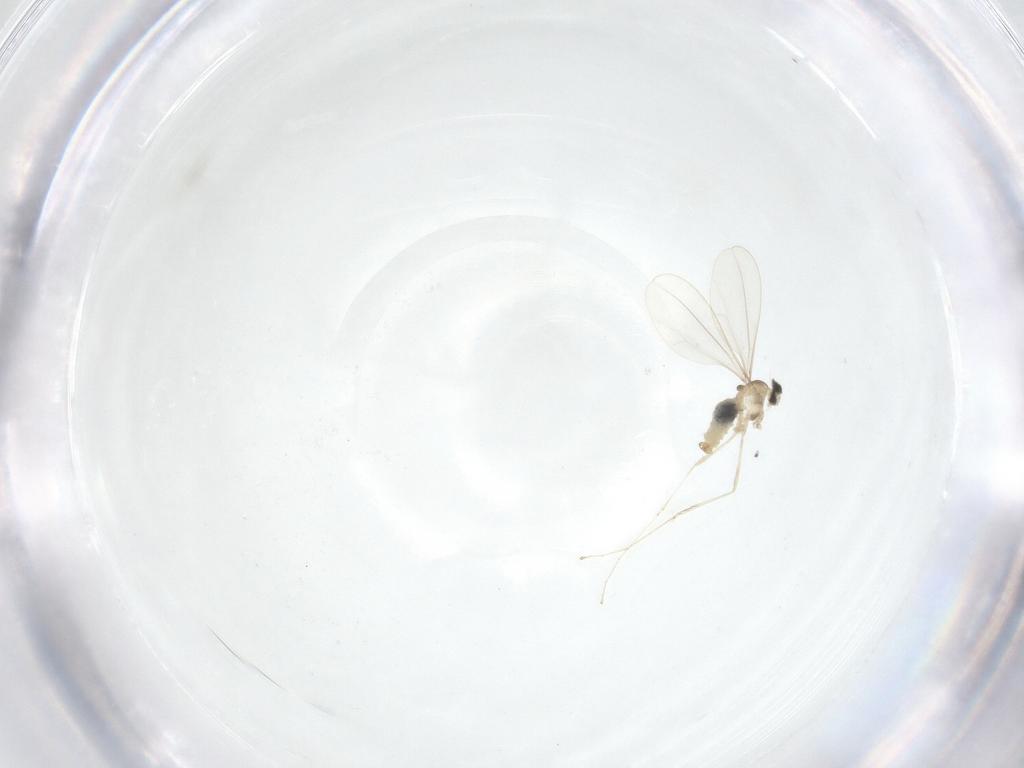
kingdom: Animalia
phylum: Arthropoda
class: Insecta
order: Diptera
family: Cecidomyiidae
